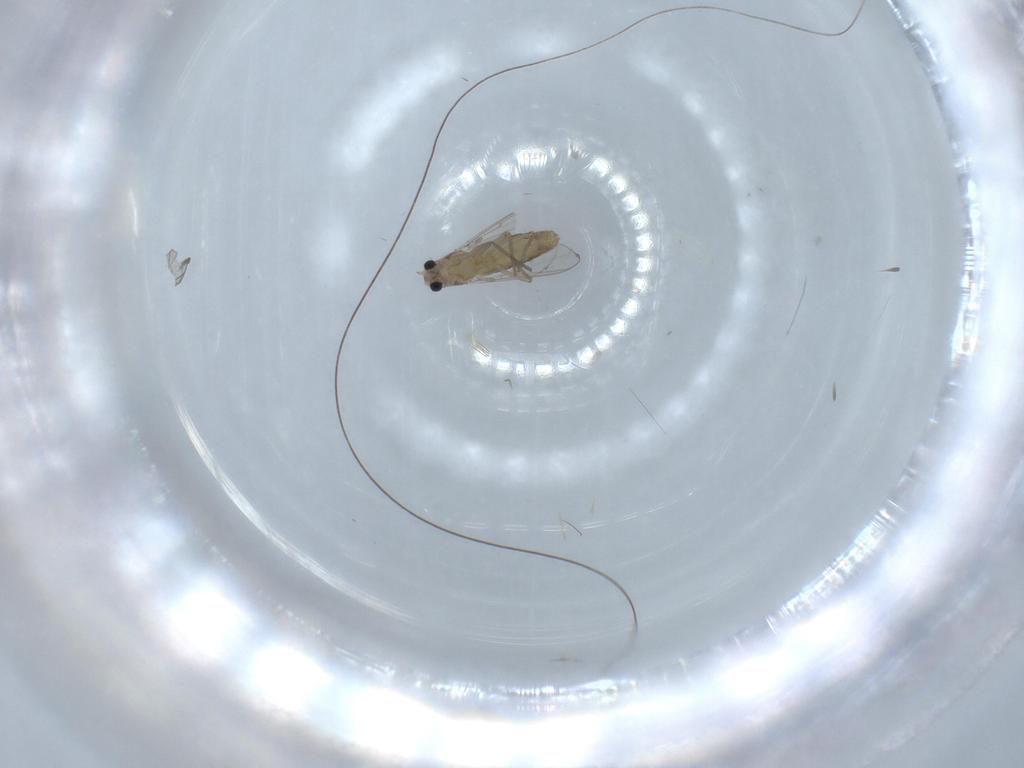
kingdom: Animalia
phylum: Arthropoda
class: Insecta
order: Diptera
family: Chironomidae
